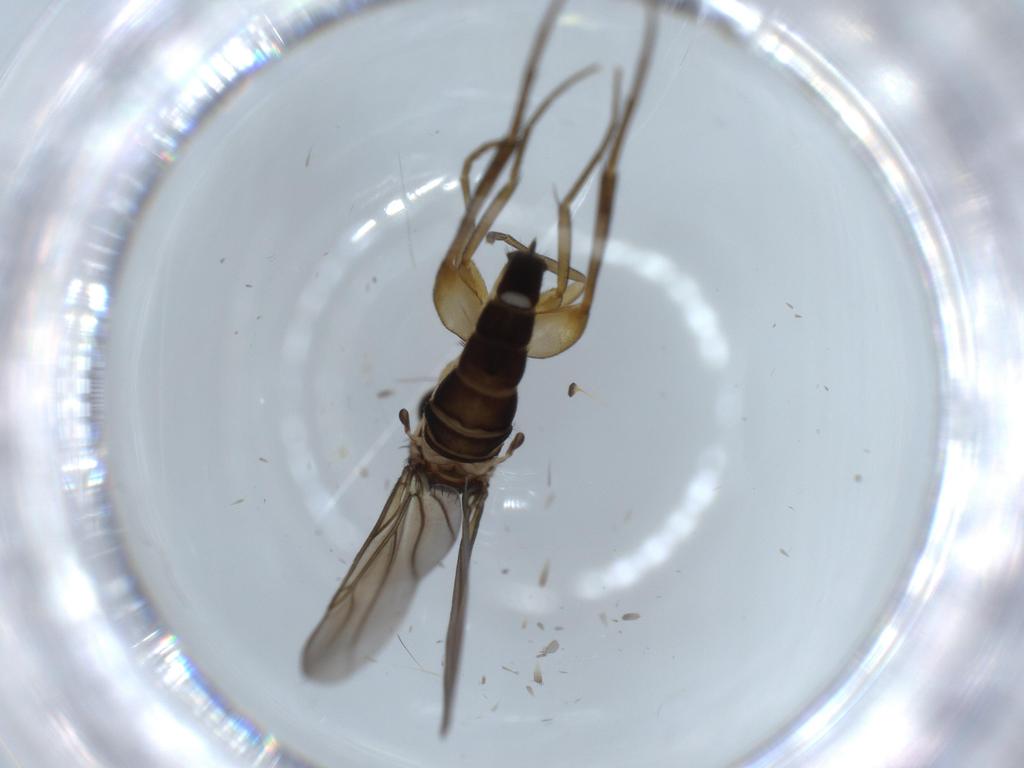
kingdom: Animalia
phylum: Arthropoda
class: Insecta
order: Diptera
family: Phoridae
